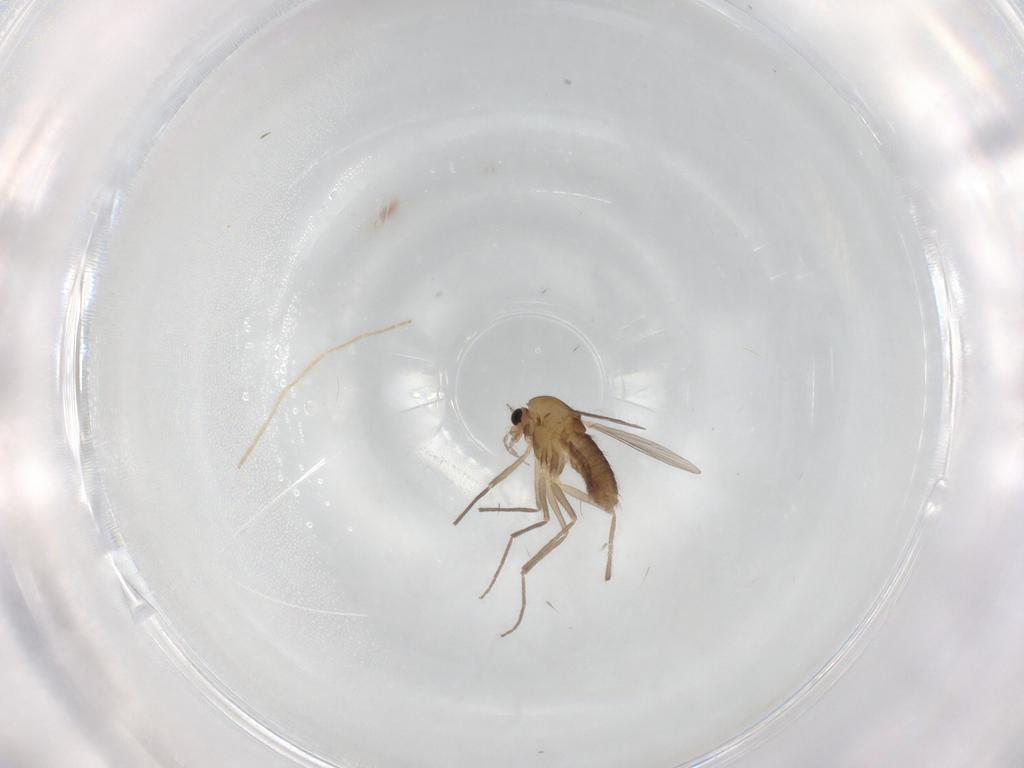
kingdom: Animalia
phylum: Arthropoda
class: Insecta
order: Diptera
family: Chironomidae
